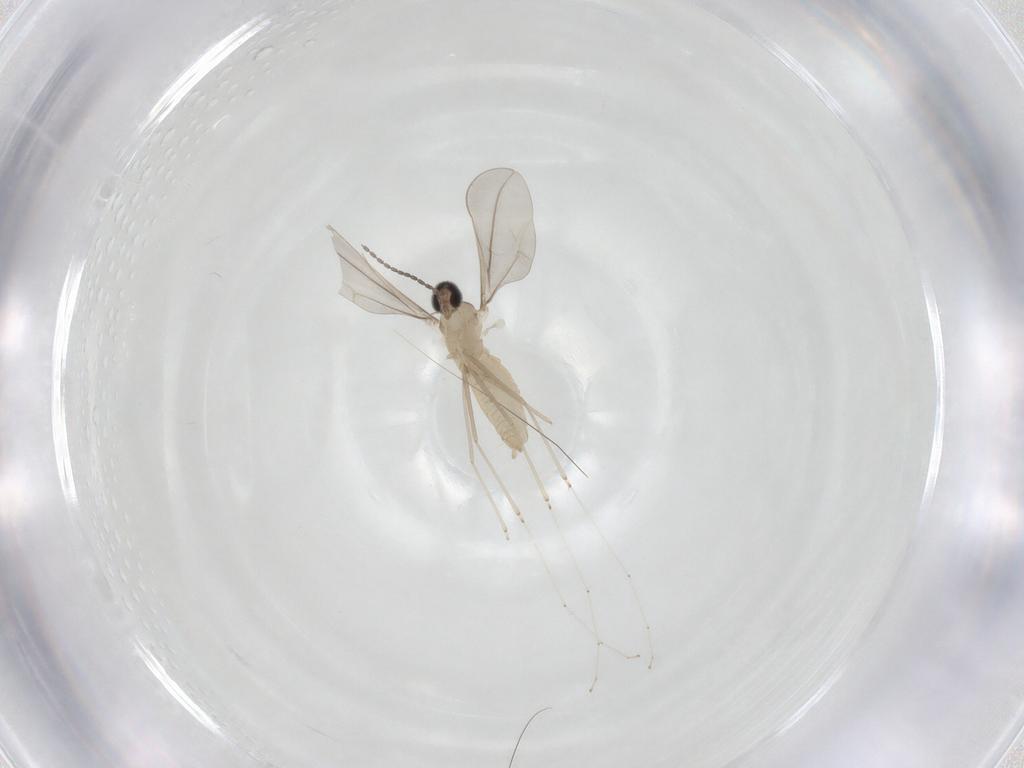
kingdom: Animalia
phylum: Arthropoda
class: Insecta
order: Diptera
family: Cecidomyiidae
